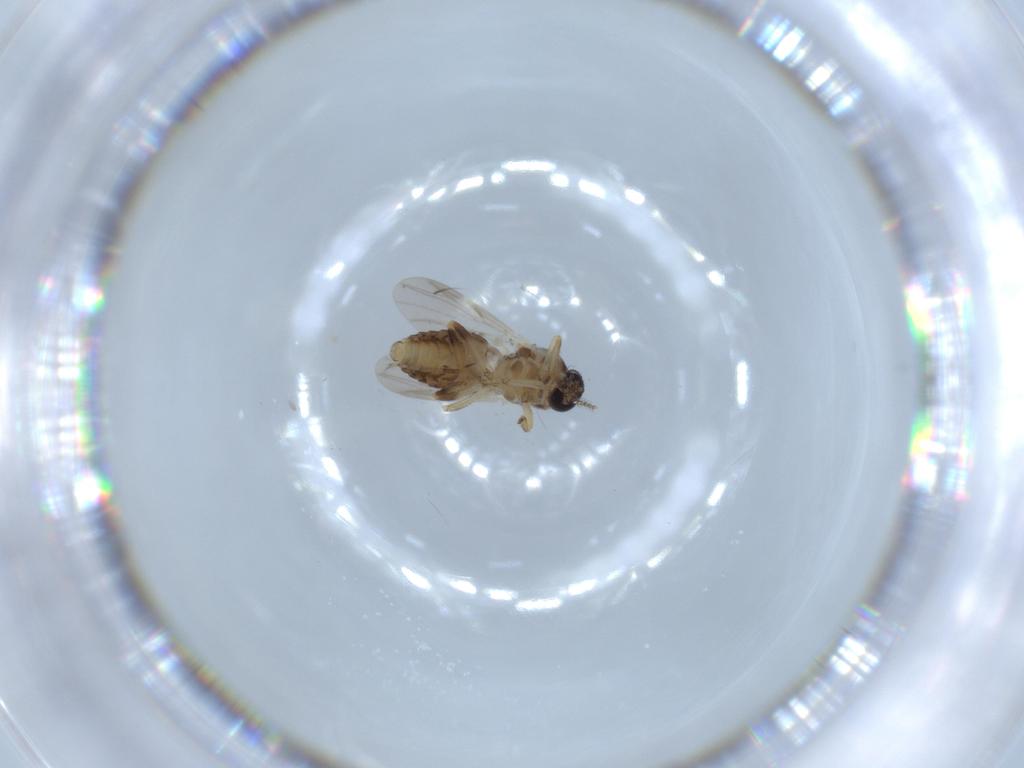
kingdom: Animalia
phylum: Arthropoda
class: Insecta
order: Diptera
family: Ceratopogonidae
